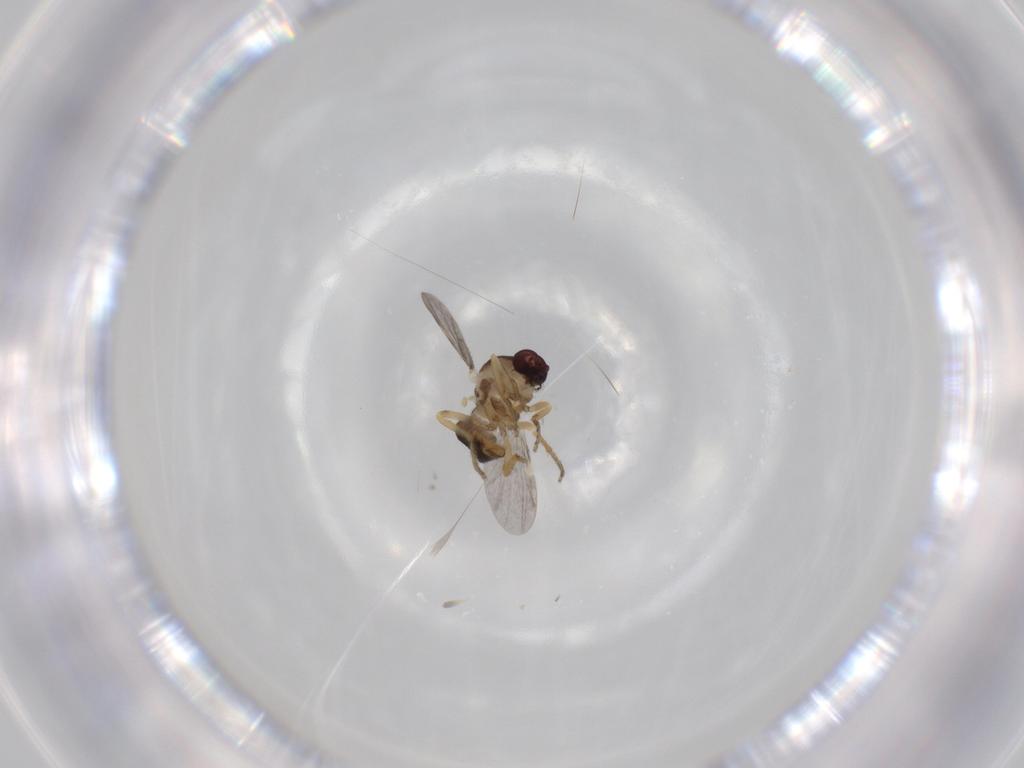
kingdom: Animalia
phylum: Arthropoda
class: Insecta
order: Diptera
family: Ceratopogonidae
